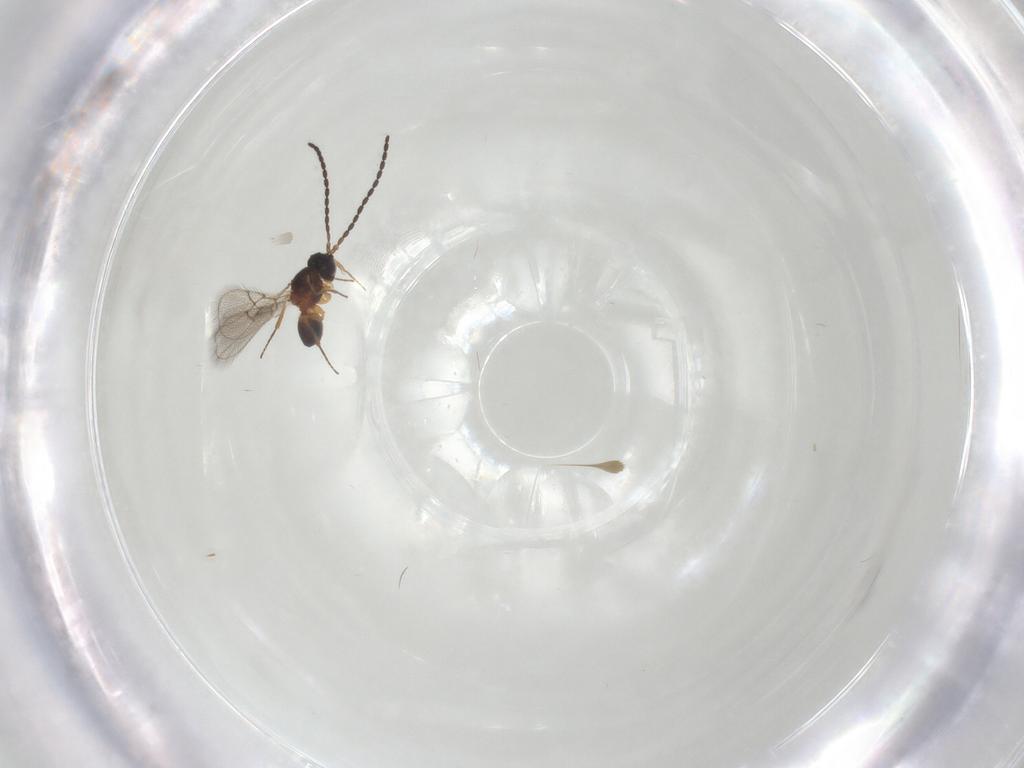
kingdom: Animalia
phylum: Arthropoda
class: Insecta
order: Hymenoptera
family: Figitidae
